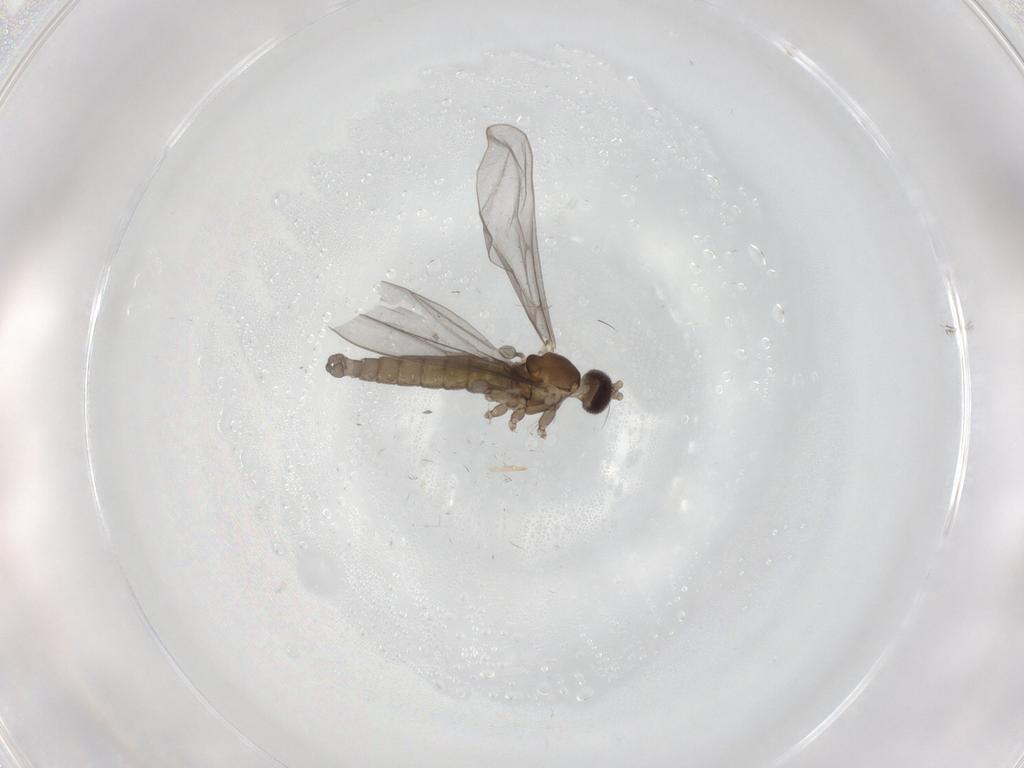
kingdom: Animalia
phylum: Arthropoda
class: Insecta
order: Diptera
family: Cecidomyiidae
